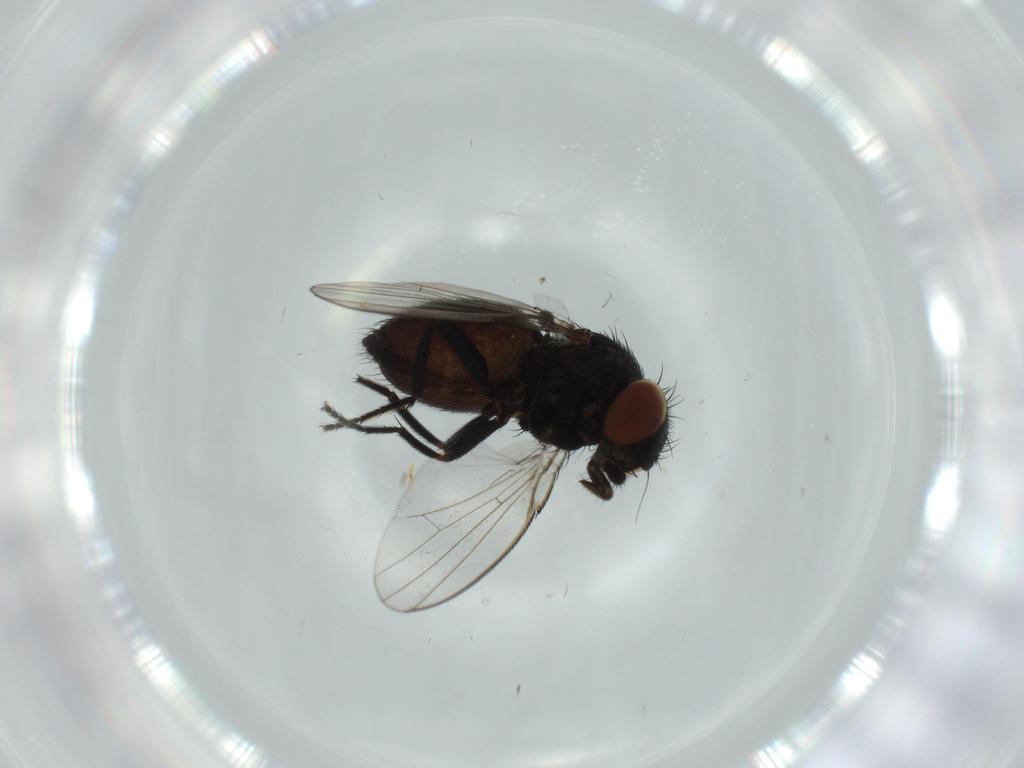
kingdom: Animalia
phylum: Arthropoda
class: Insecta
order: Diptera
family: Milichiidae
